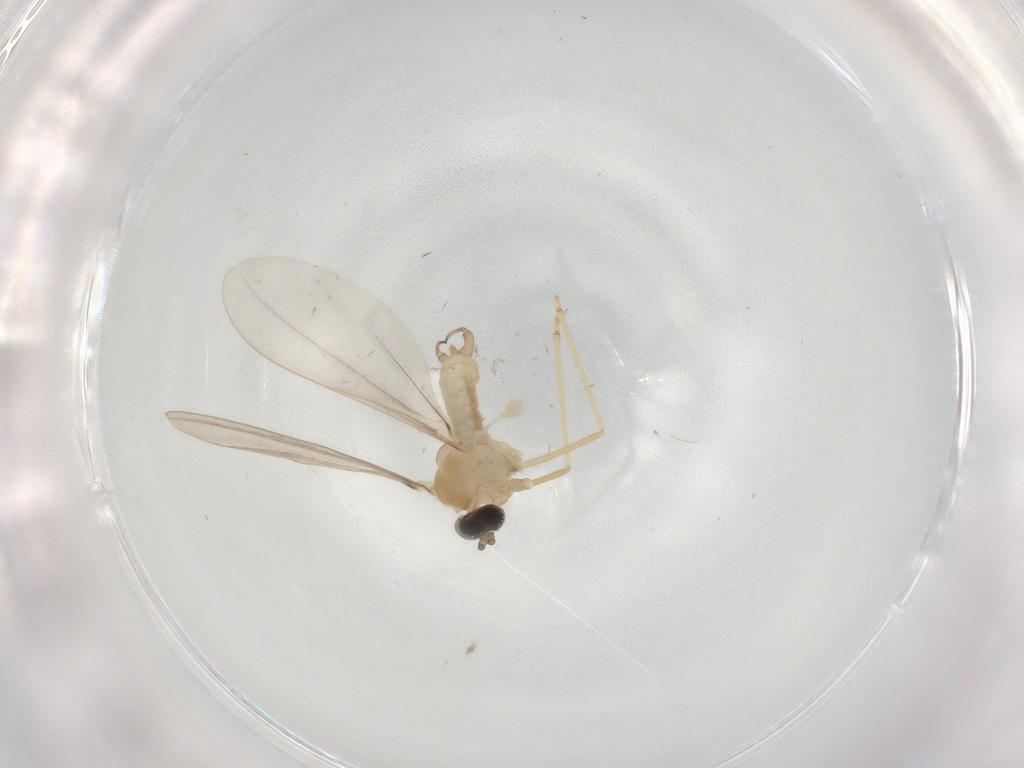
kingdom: Animalia
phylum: Arthropoda
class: Insecta
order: Diptera
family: Cecidomyiidae
